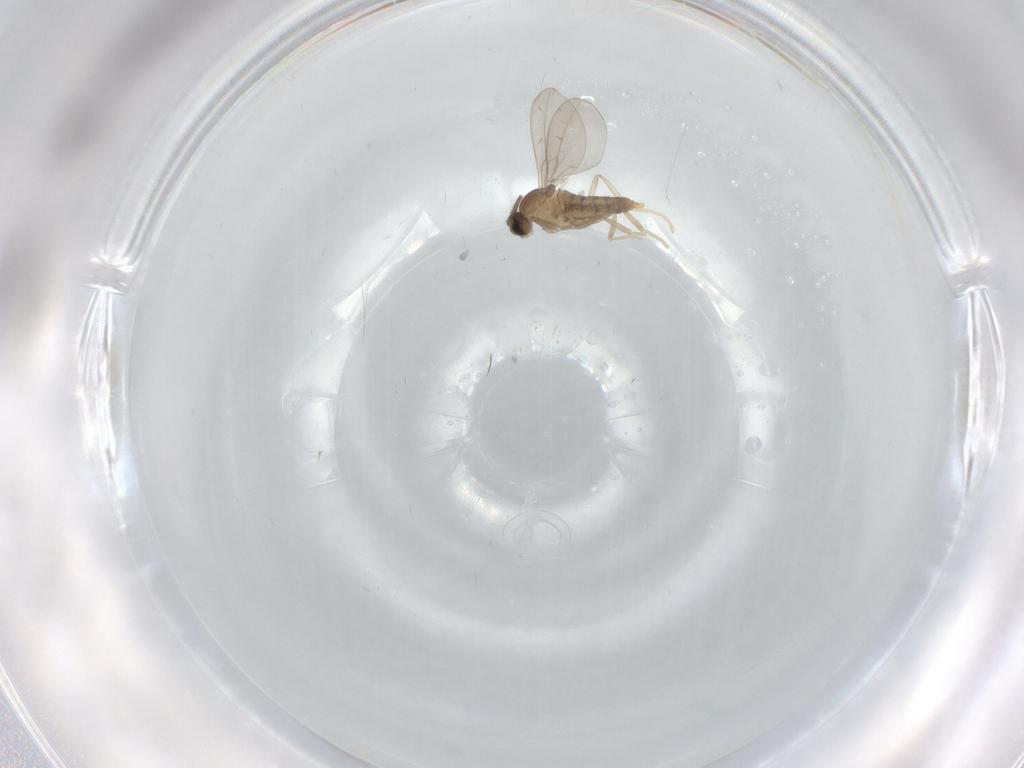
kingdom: Animalia
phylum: Arthropoda
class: Insecta
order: Diptera
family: Cecidomyiidae
